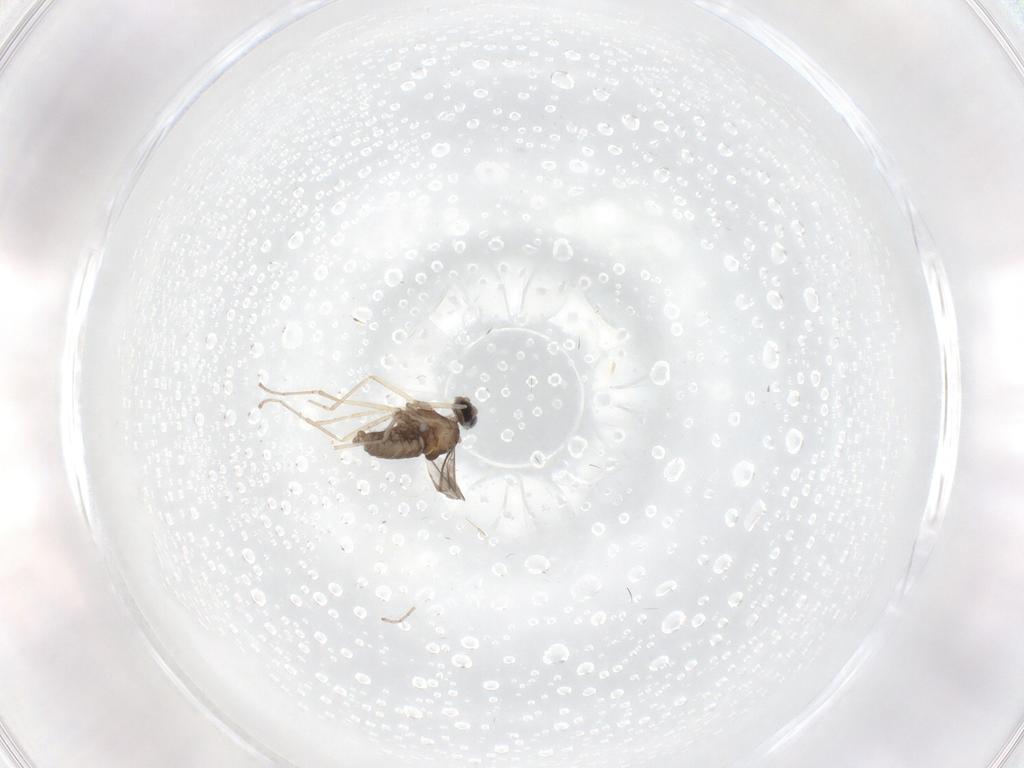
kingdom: Animalia
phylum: Arthropoda
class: Insecta
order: Diptera
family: Cecidomyiidae
